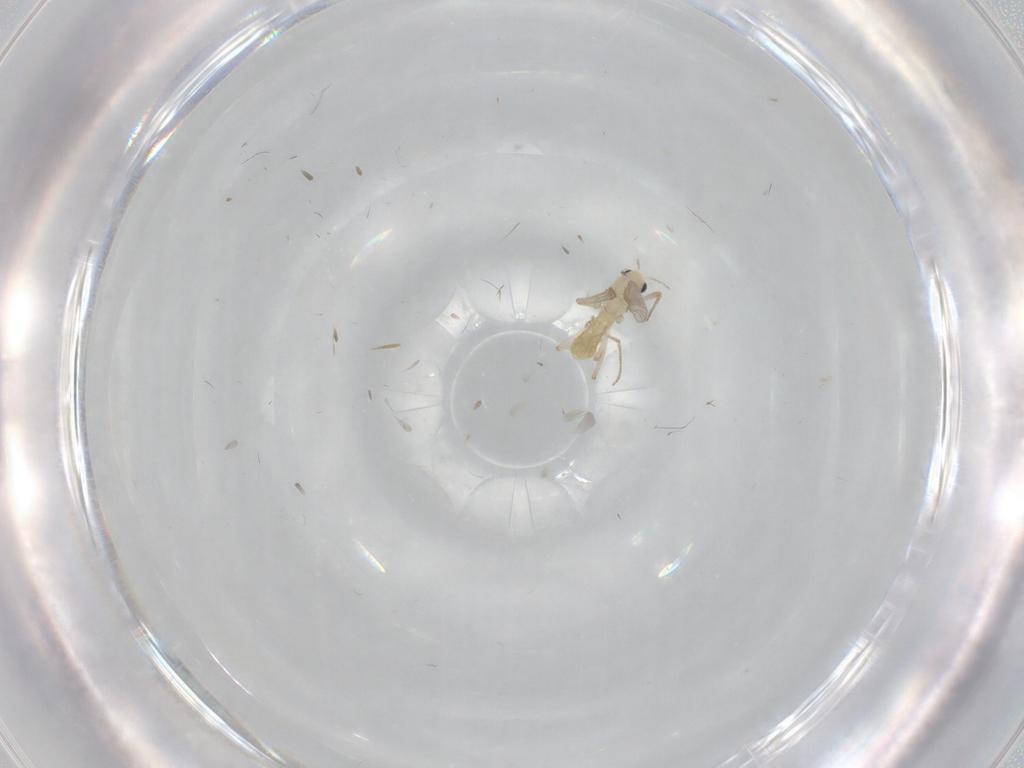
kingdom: Animalia
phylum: Arthropoda
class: Insecta
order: Diptera
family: Chironomidae
